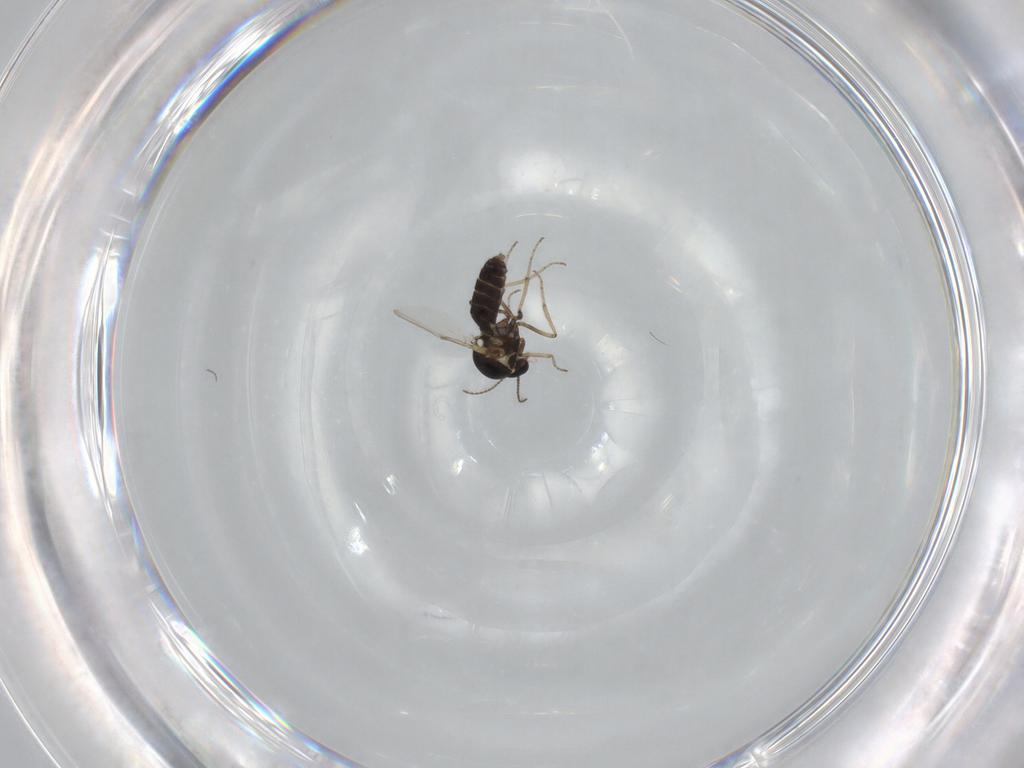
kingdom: Animalia
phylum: Arthropoda
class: Insecta
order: Diptera
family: Ceratopogonidae
